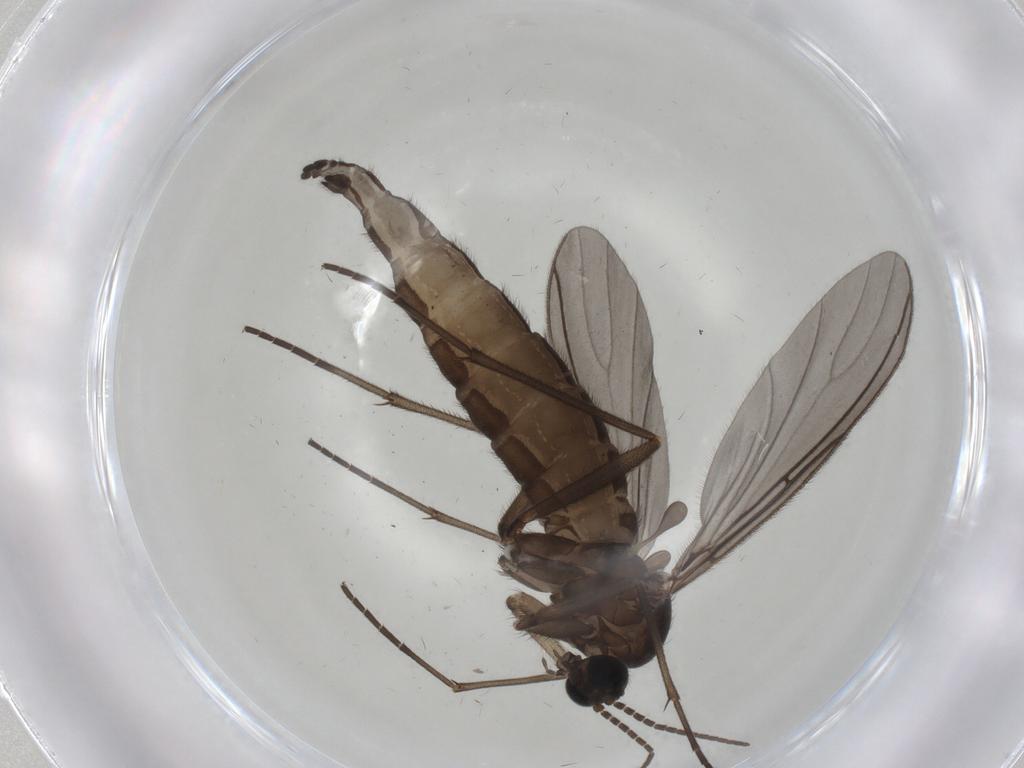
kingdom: Animalia
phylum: Arthropoda
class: Insecta
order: Diptera
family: Sciaridae
